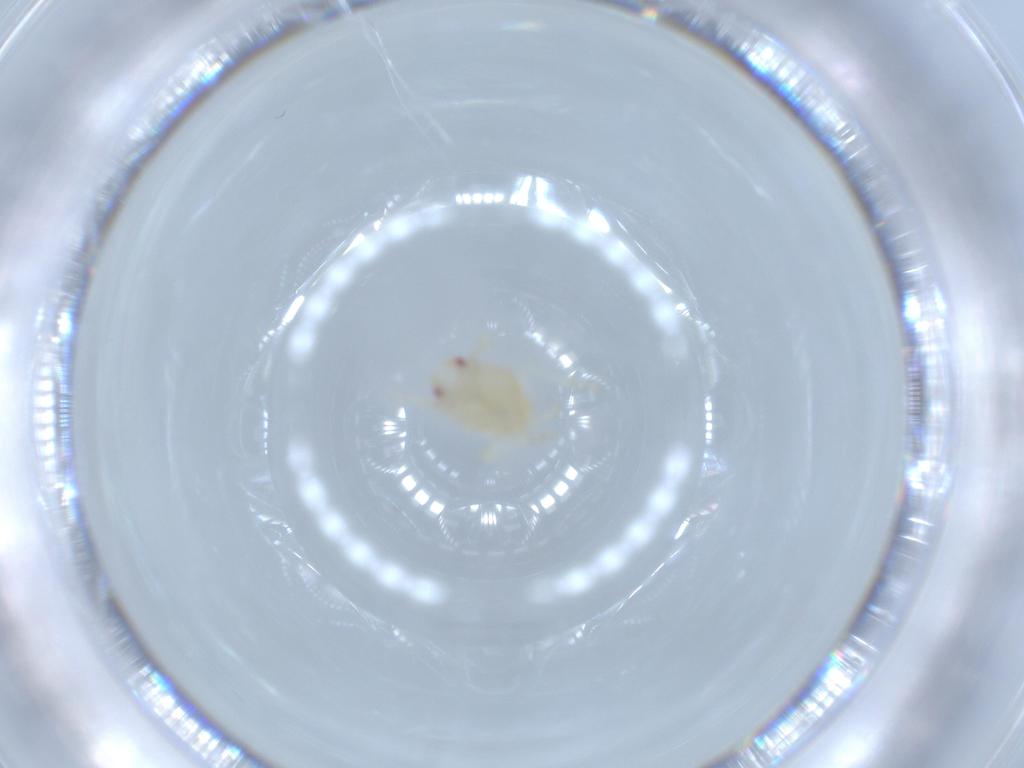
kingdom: Animalia
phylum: Arthropoda
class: Insecta
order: Hemiptera
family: Flatidae
